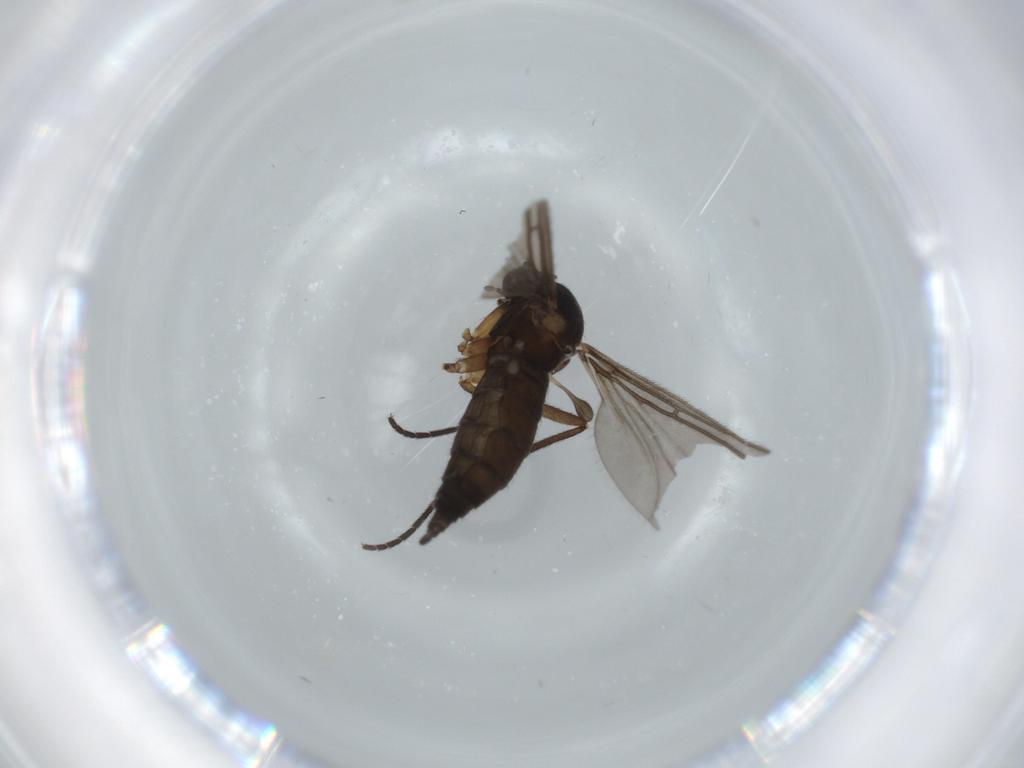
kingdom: Animalia
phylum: Arthropoda
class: Insecta
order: Diptera
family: Sciaridae
